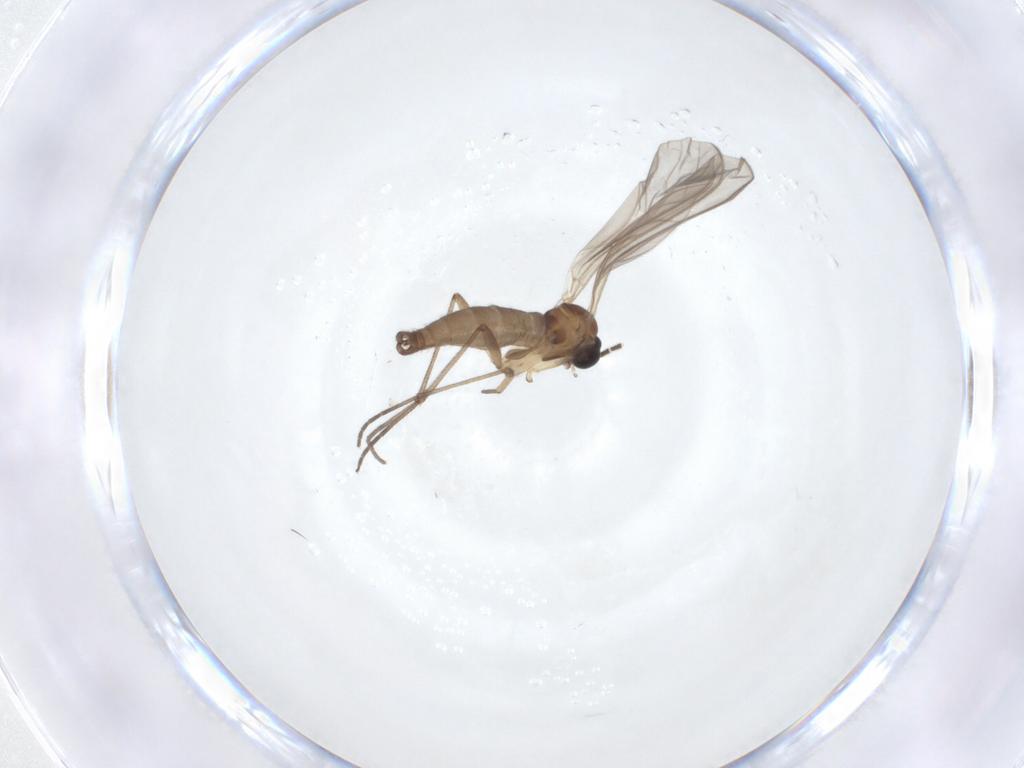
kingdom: Animalia
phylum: Arthropoda
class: Insecta
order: Diptera
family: Sciaridae
